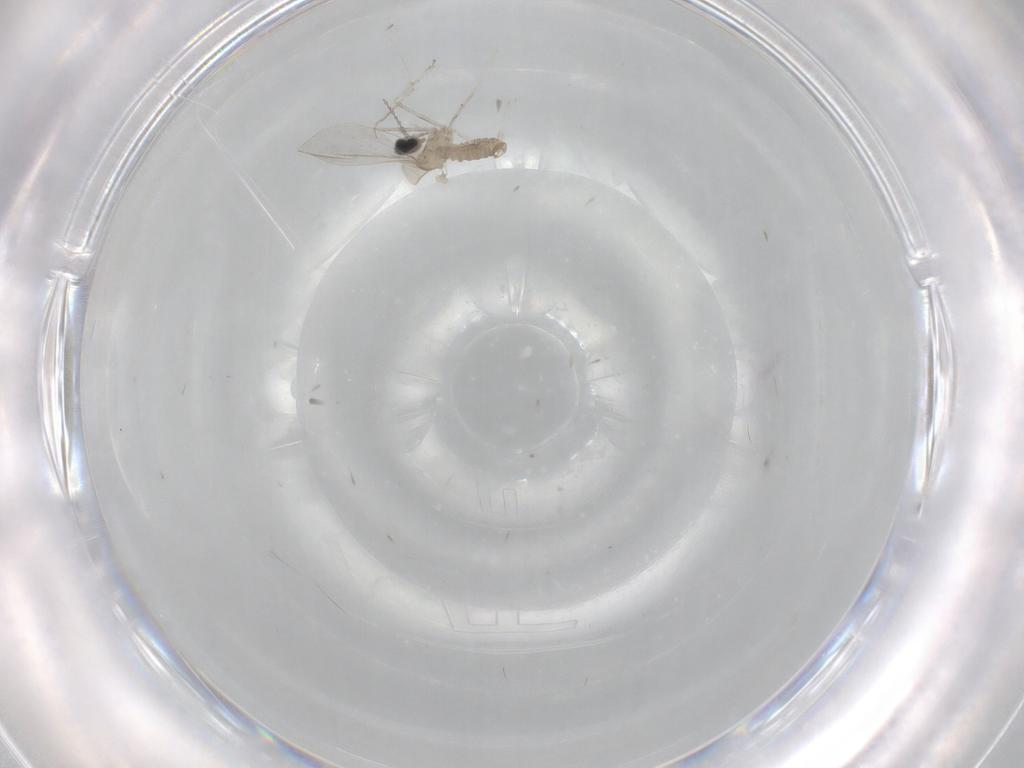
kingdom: Animalia
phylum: Arthropoda
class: Insecta
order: Diptera
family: Cecidomyiidae
